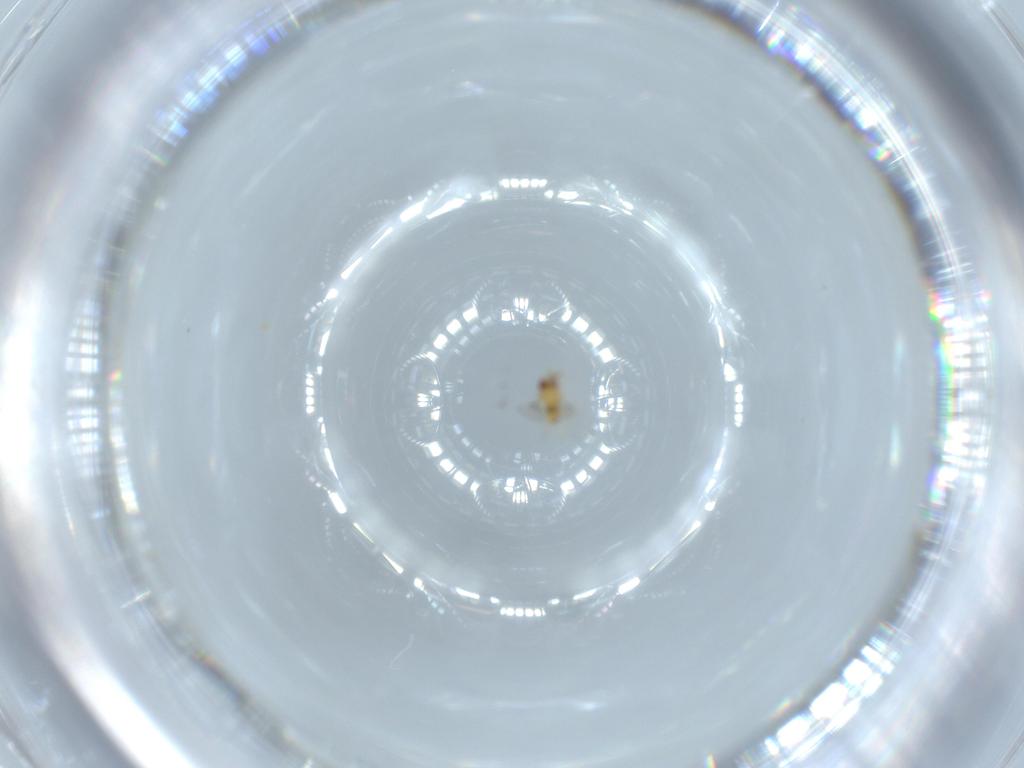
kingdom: Animalia
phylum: Arthropoda
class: Insecta
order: Hymenoptera
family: Trichogrammatidae
